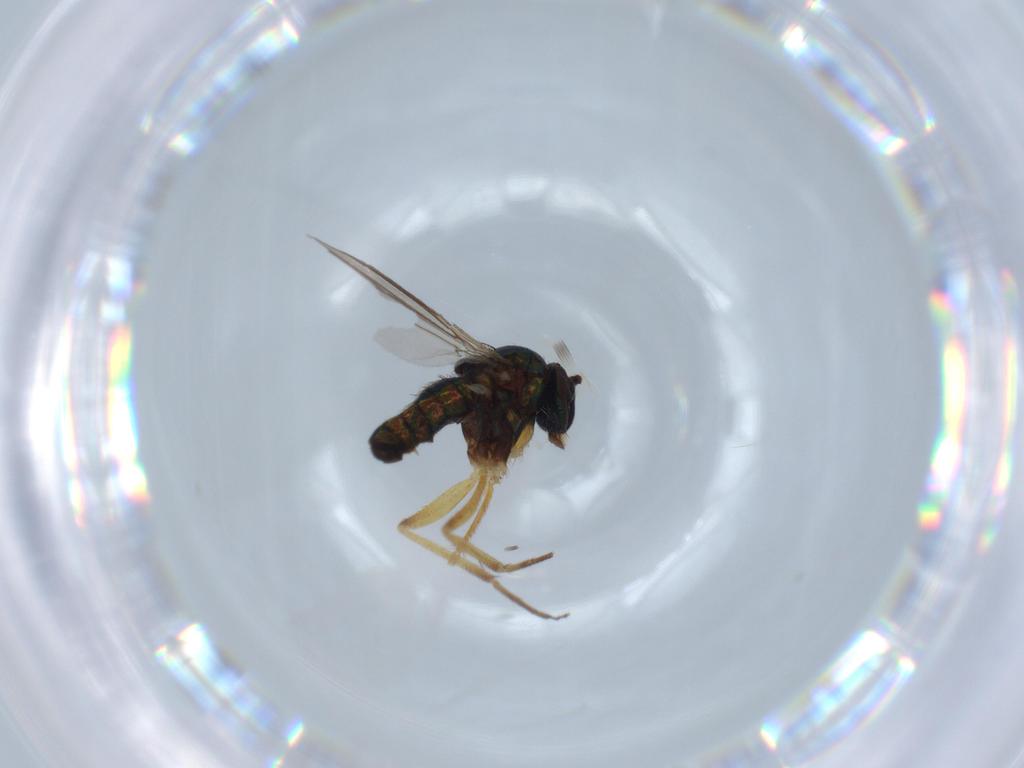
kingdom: Animalia
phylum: Arthropoda
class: Insecta
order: Diptera
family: Dolichopodidae
